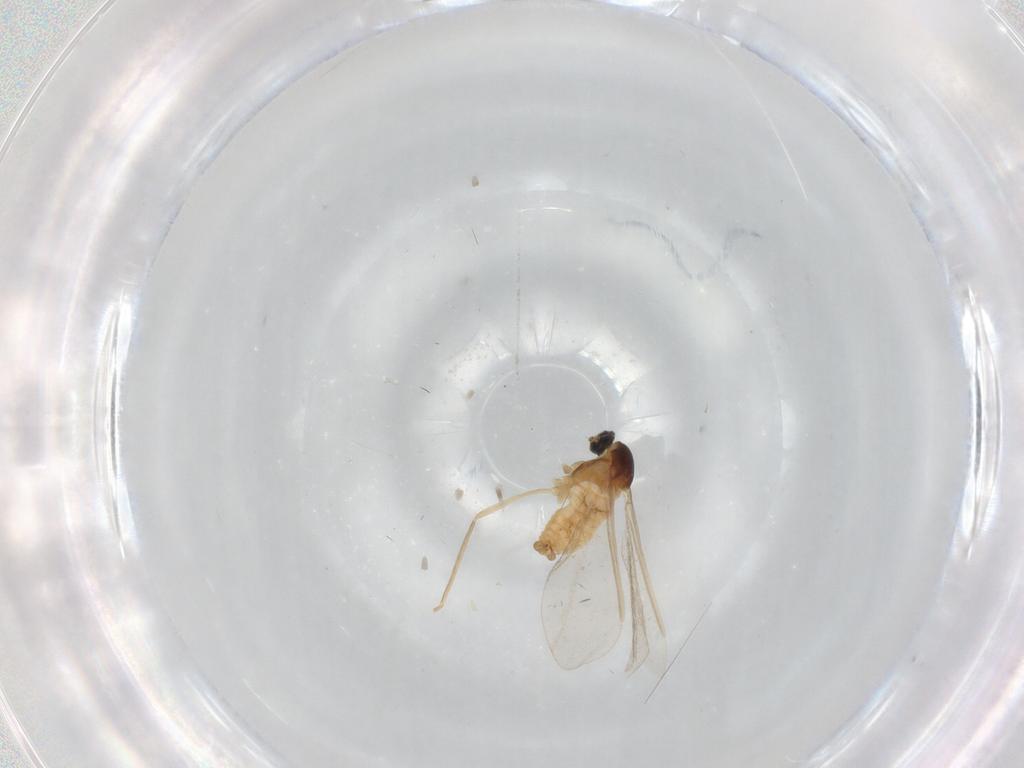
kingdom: Animalia
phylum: Arthropoda
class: Insecta
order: Diptera
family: Cecidomyiidae
